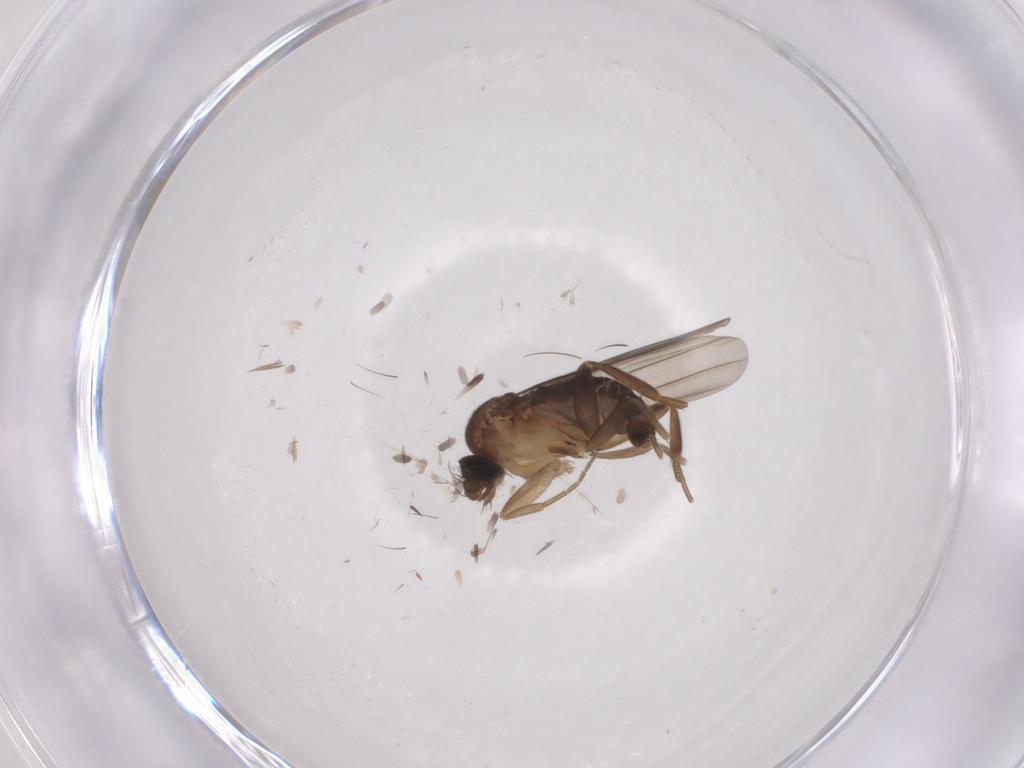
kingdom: Animalia
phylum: Arthropoda
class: Insecta
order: Diptera
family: Phoridae
